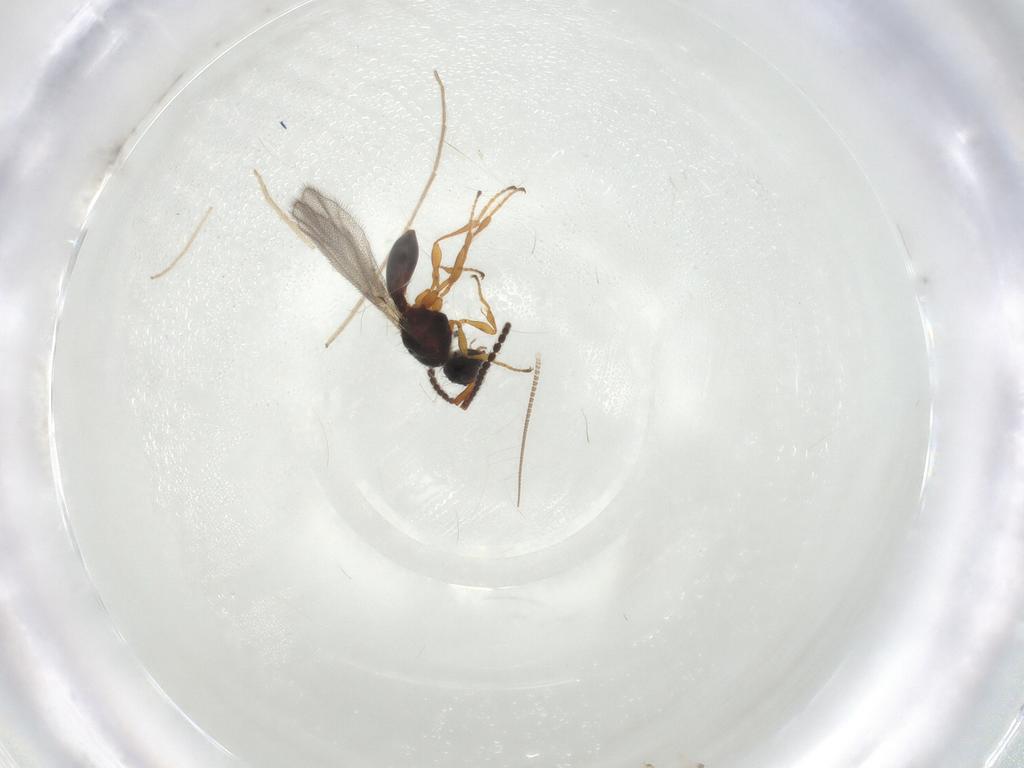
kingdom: Animalia
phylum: Arthropoda
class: Insecta
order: Hymenoptera
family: Diapriidae
